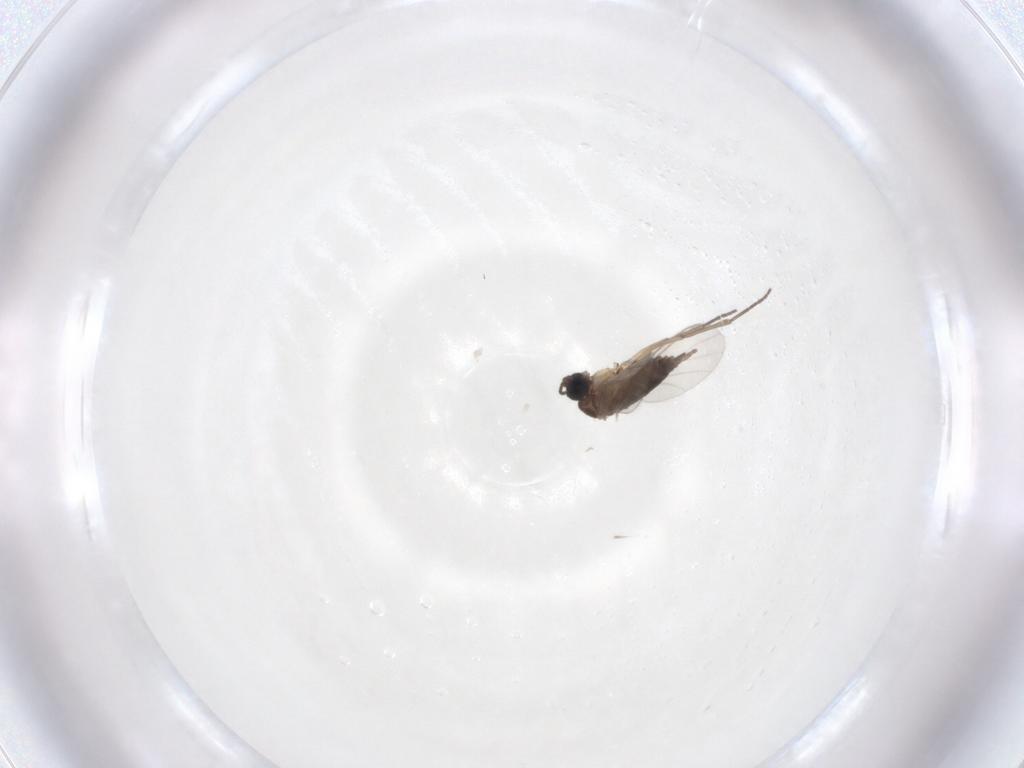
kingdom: Animalia
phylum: Arthropoda
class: Insecta
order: Diptera
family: Sciaridae
